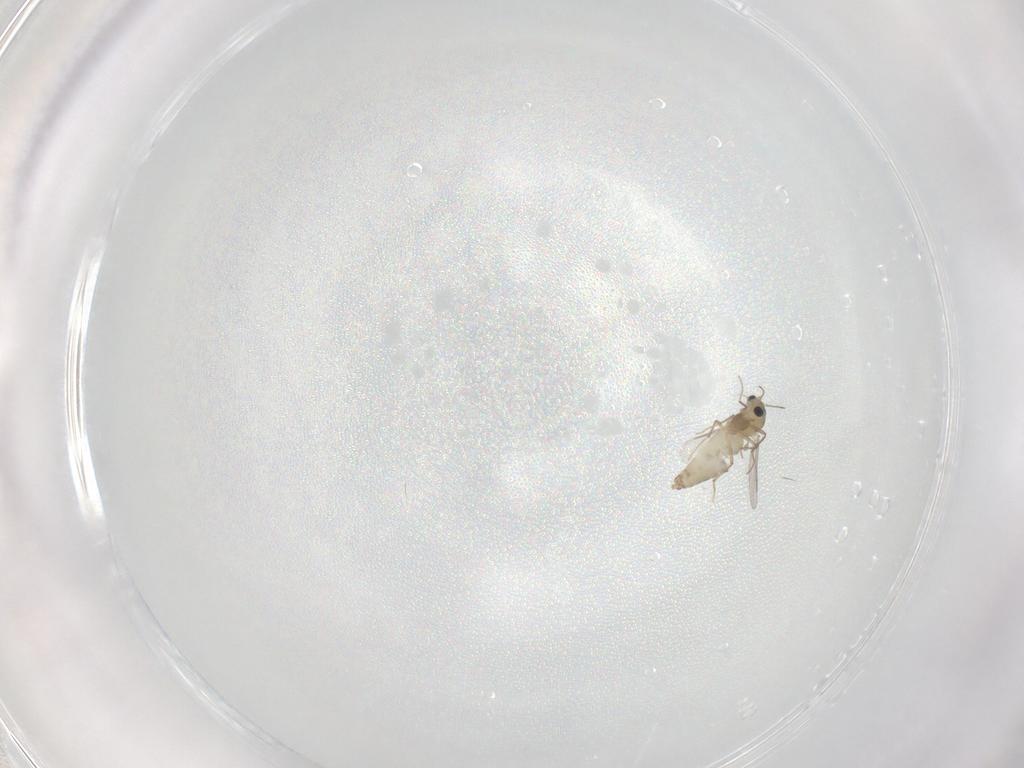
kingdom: Animalia
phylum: Arthropoda
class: Insecta
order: Diptera
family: Chironomidae
